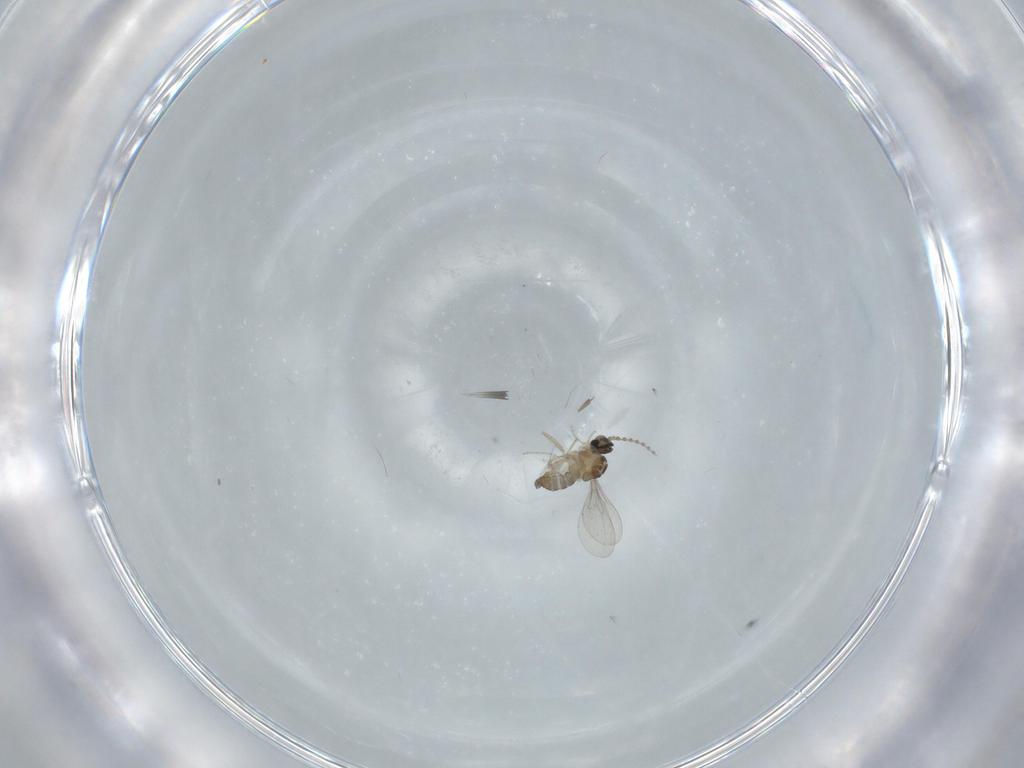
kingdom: Animalia
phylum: Arthropoda
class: Insecta
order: Diptera
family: Cecidomyiidae
